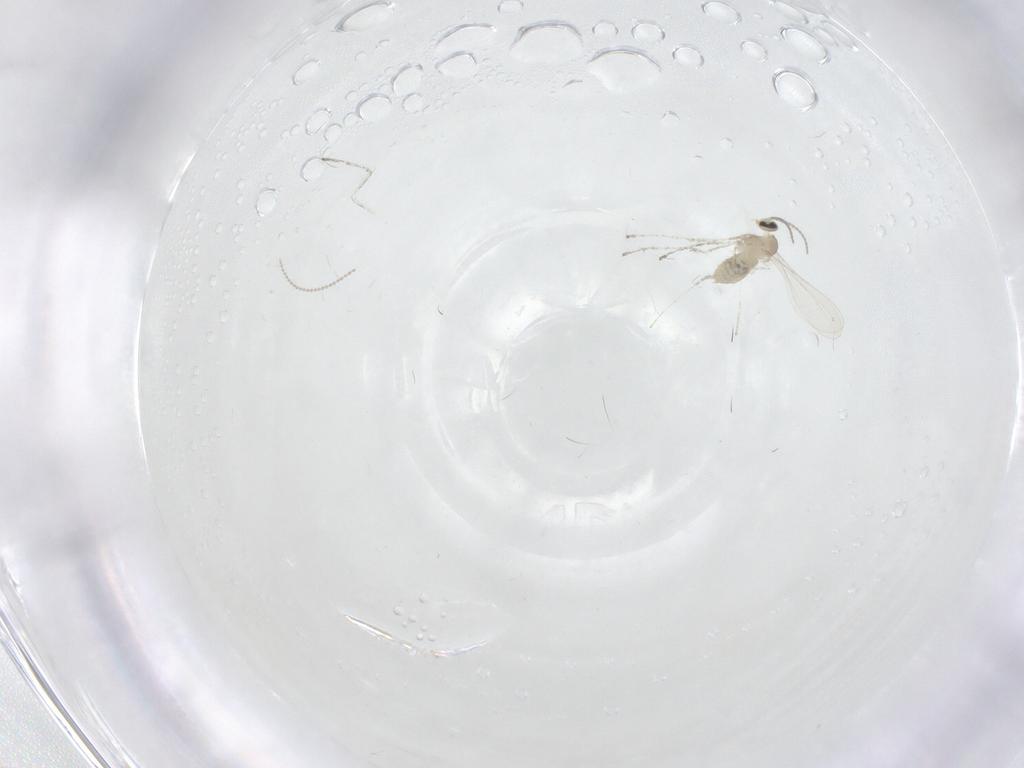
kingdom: Animalia
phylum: Arthropoda
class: Insecta
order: Diptera
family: Cecidomyiidae
